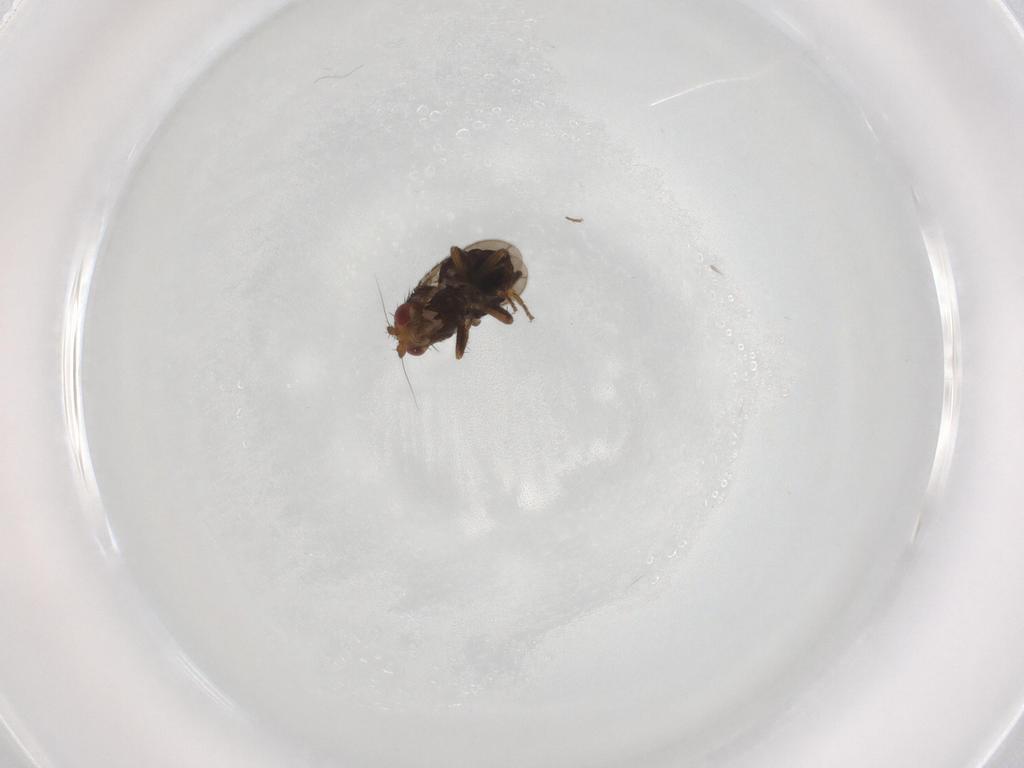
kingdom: Animalia
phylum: Arthropoda
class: Insecta
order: Diptera
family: Sphaeroceridae
